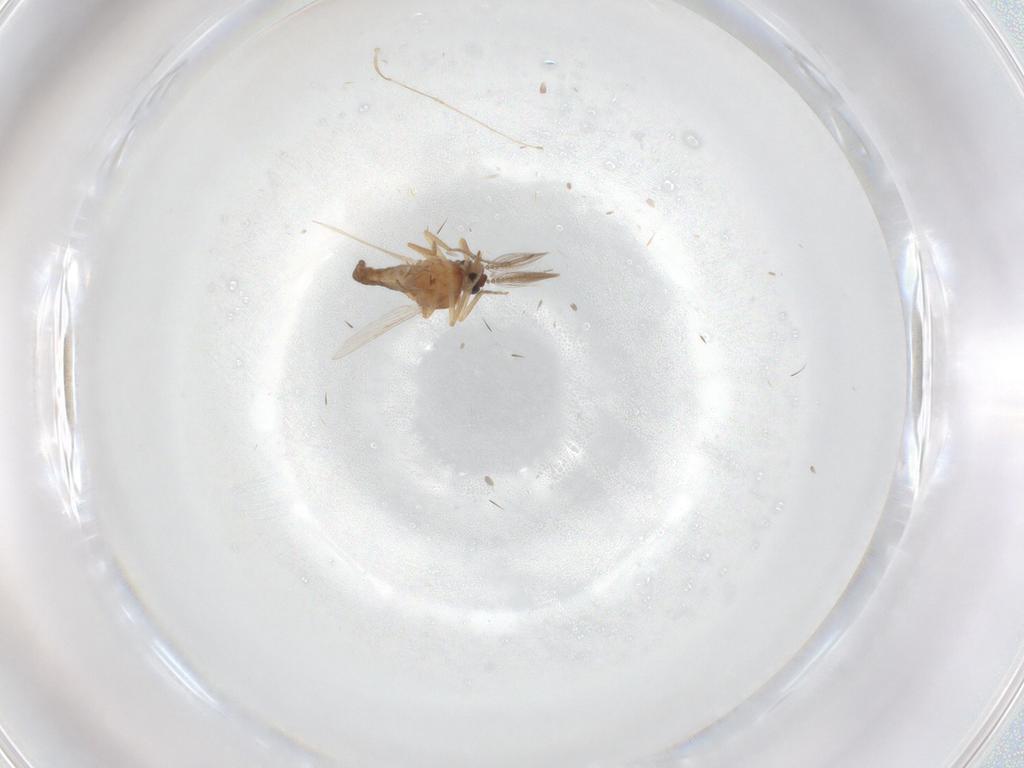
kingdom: Animalia
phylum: Arthropoda
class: Insecta
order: Diptera
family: Ceratopogonidae
